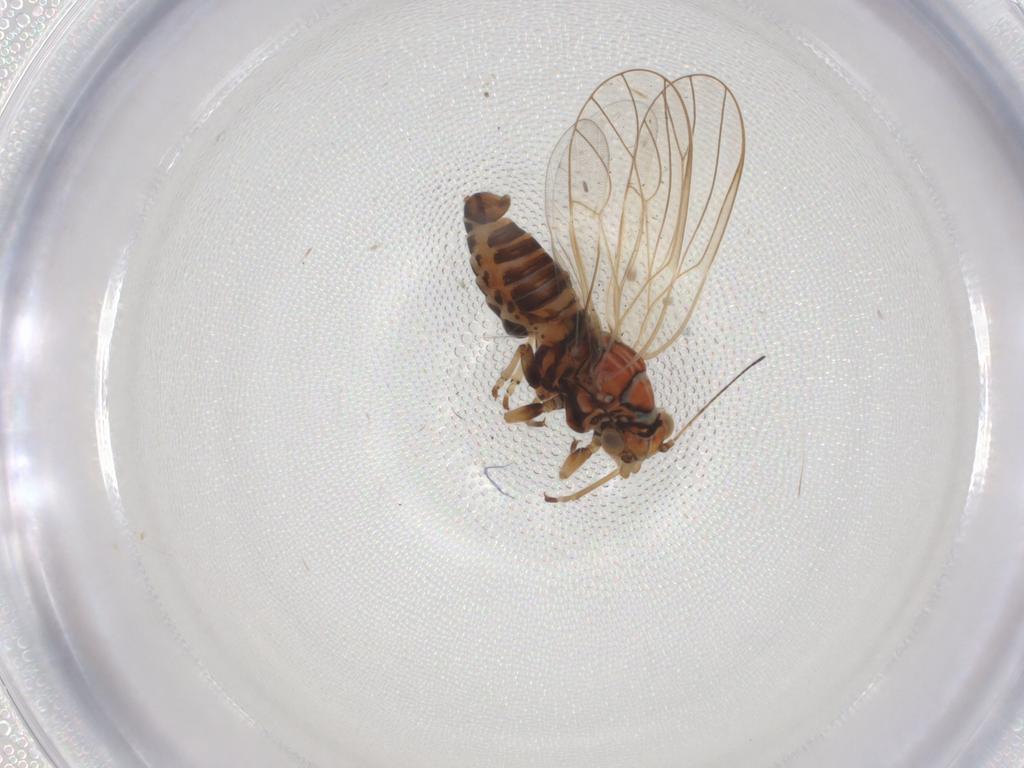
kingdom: Animalia
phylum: Arthropoda
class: Insecta
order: Hemiptera
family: Psyllidae
